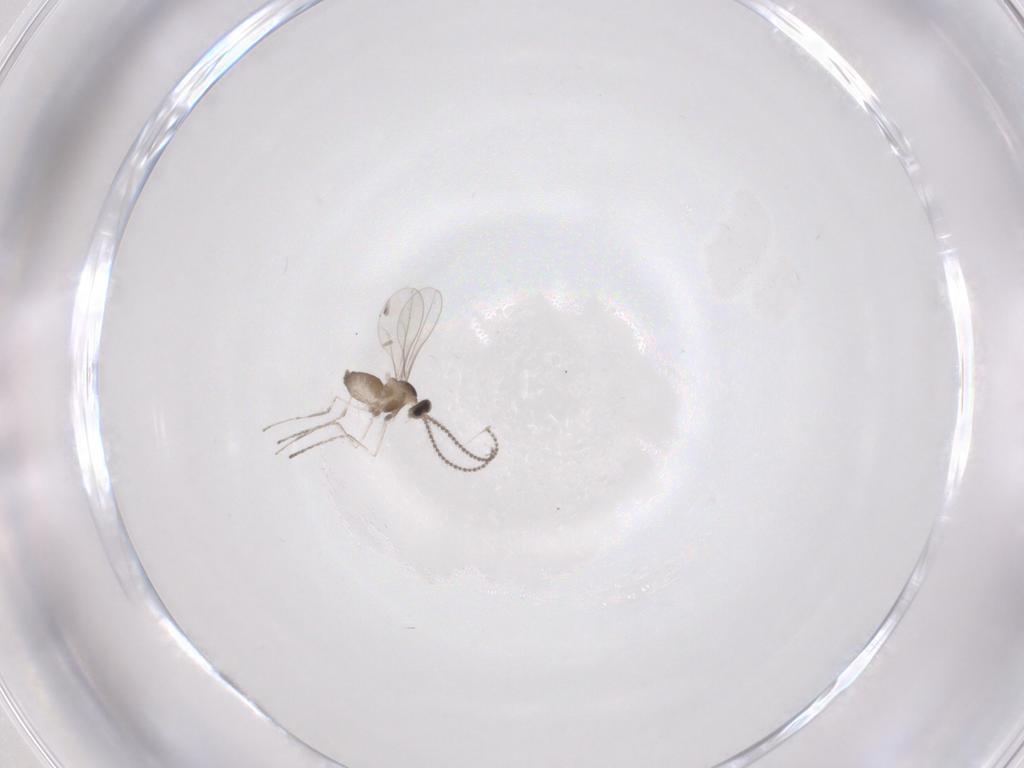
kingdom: Animalia
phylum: Arthropoda
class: Insecta
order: Diptera
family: Cecidomyiidae
